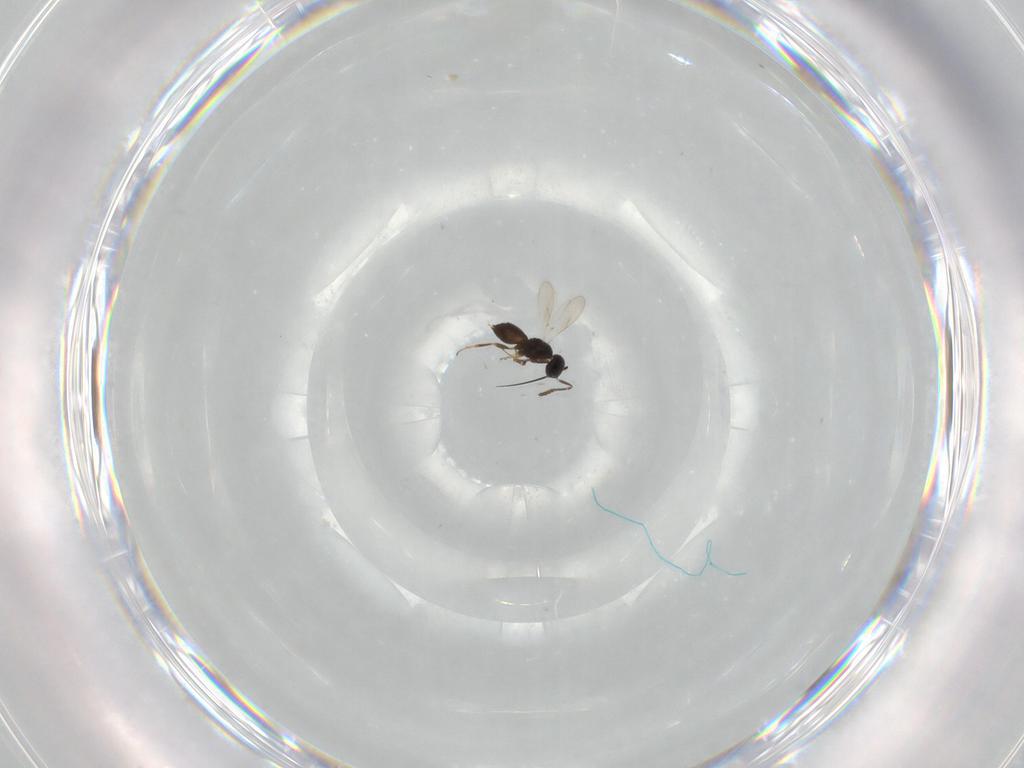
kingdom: Animalia
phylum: Arthropoda
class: Insecta
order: Hymenoptera
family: Scelionidae
